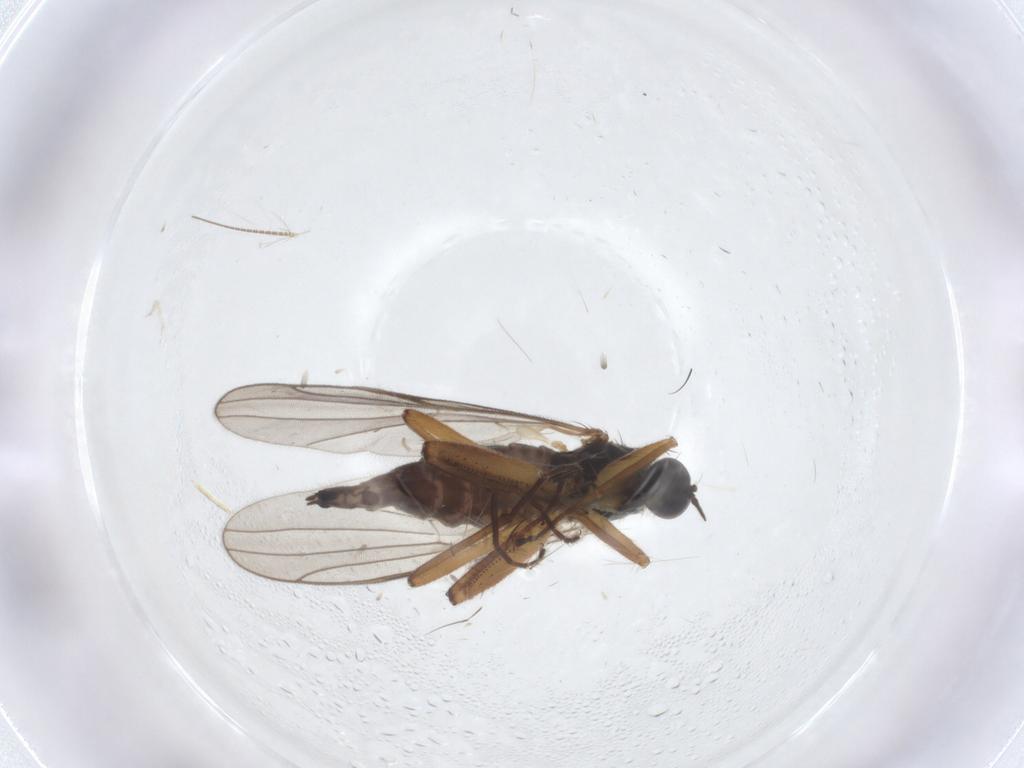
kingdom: Animalia
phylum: Arthropoda
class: Insecta
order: Diptera
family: Hybotidae
